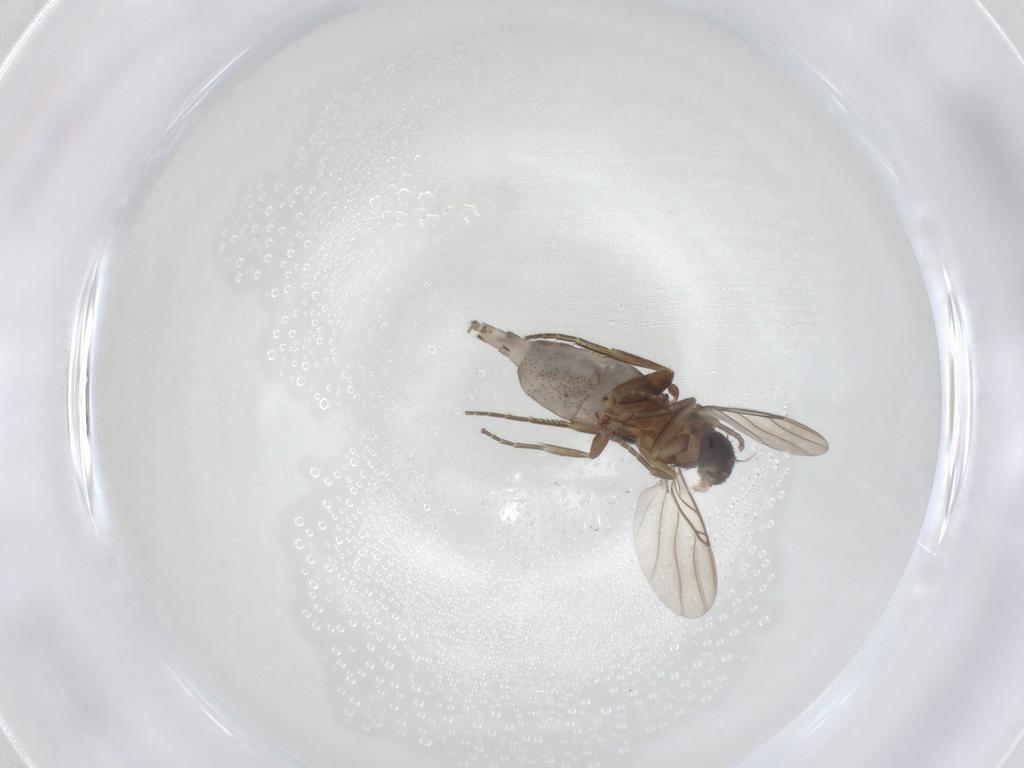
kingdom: Animalia
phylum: Arthropoda
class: Insecta
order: Diptera
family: Phoridae
